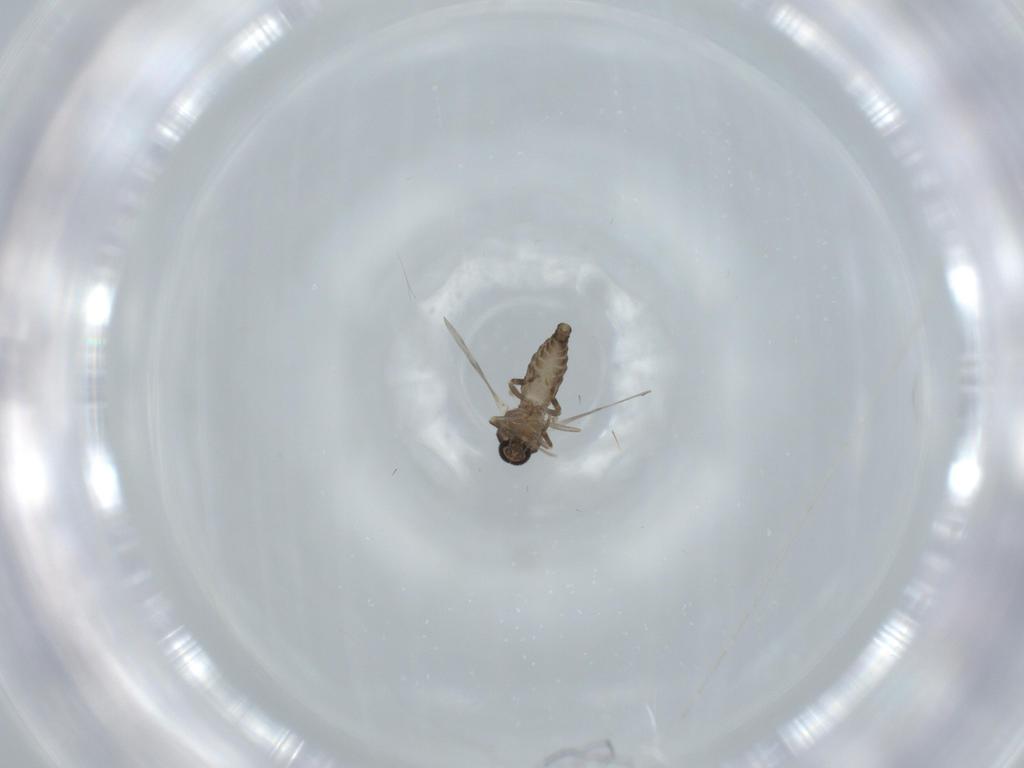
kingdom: Animalia
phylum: Arthropoda
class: Insecta
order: Diptera
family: Ceratopogonidae
